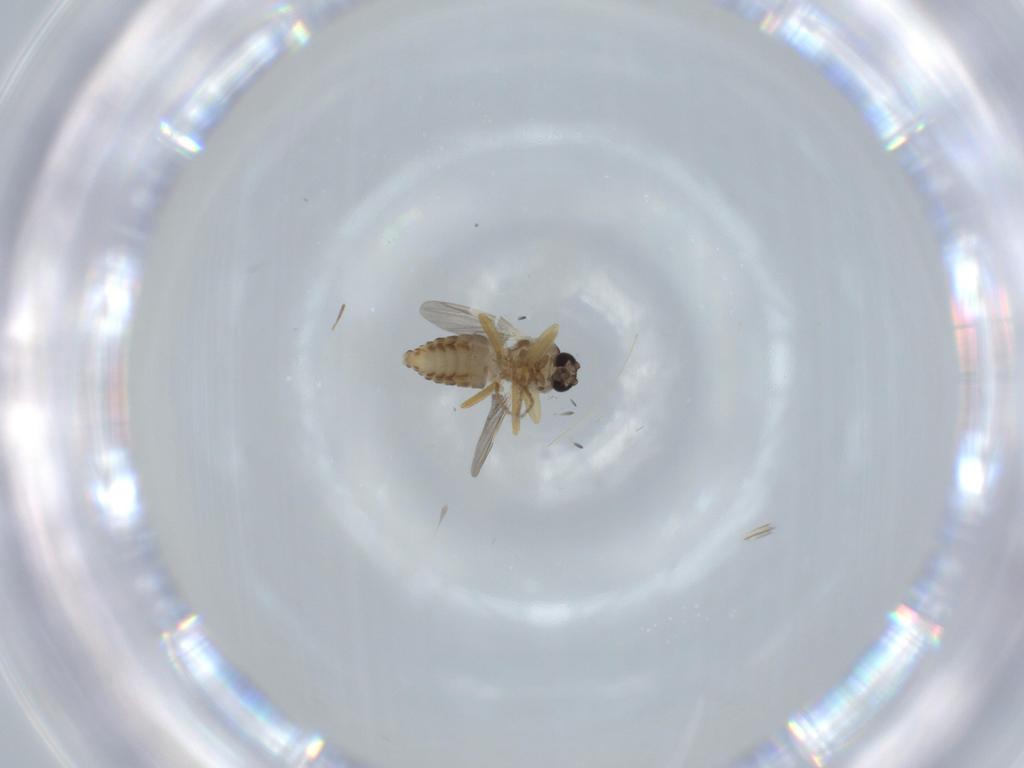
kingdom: Animalia
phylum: Arthropoda
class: Insecta
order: Diptera
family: Ceratopogonidae
